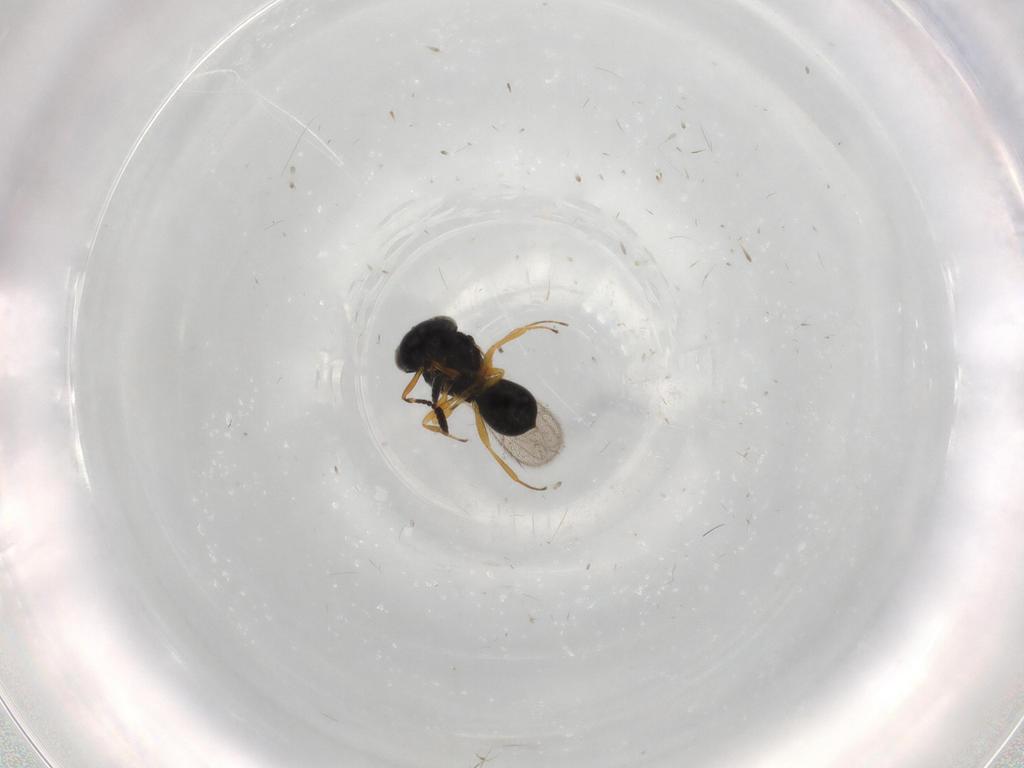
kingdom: Animalia
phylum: Arthropoda
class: Insecta
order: Hymenoptera
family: Scelionidae
